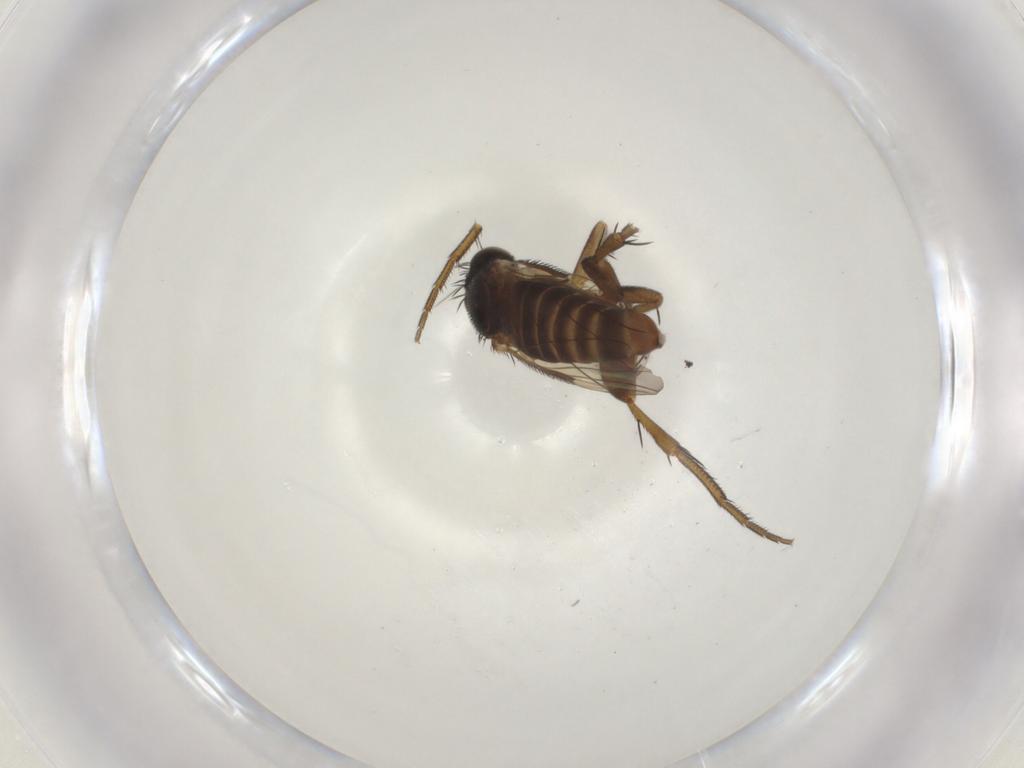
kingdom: Animalia
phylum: Arthropoda
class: Insecta
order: Diptera
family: Phoridae
